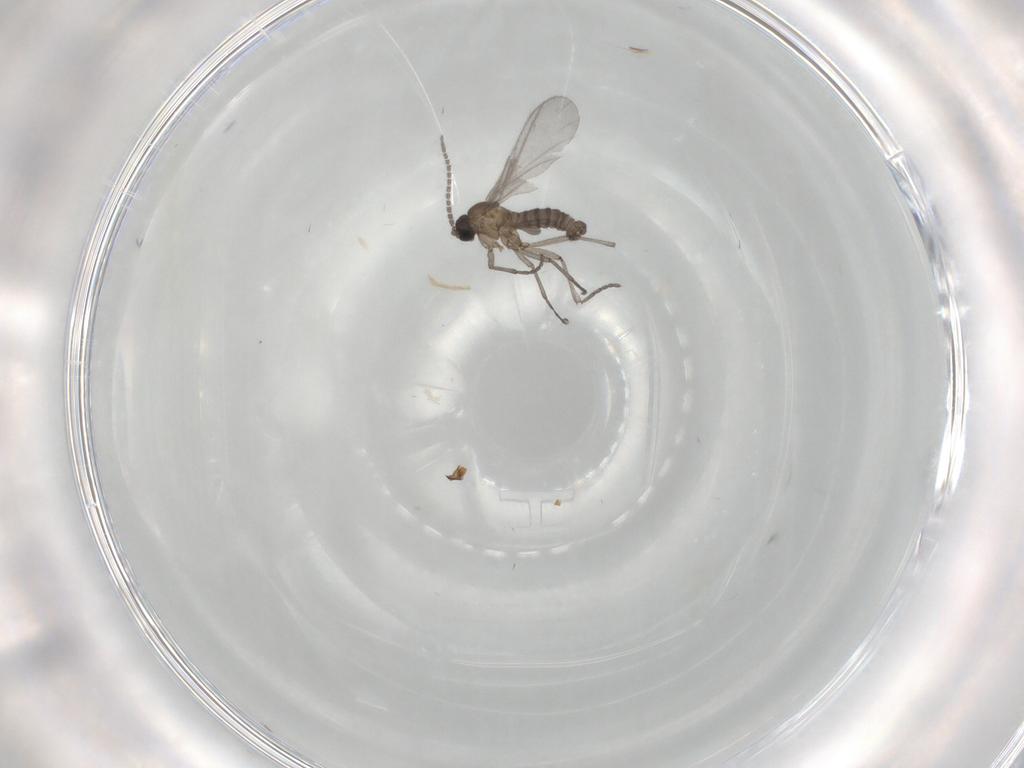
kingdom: Animalia
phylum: Arthropoda
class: Insecta
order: Diptera
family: Sciaridae
